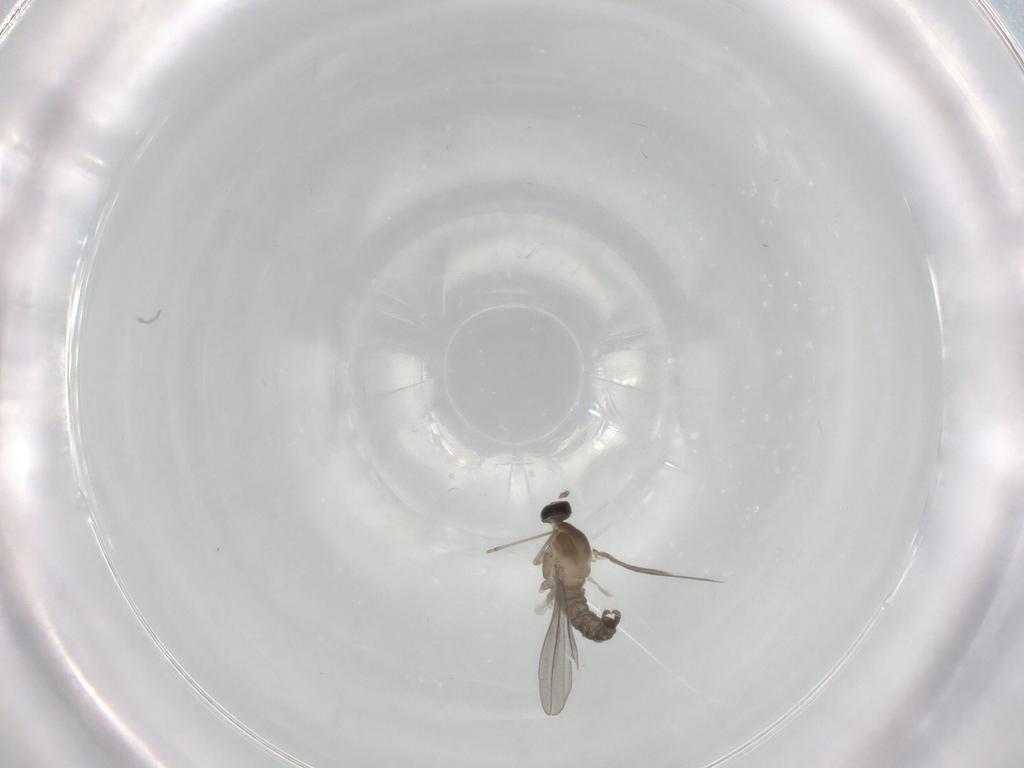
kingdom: Animalia
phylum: Arthropoda
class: Insecta
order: Diptera
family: Cecidomyiidae
